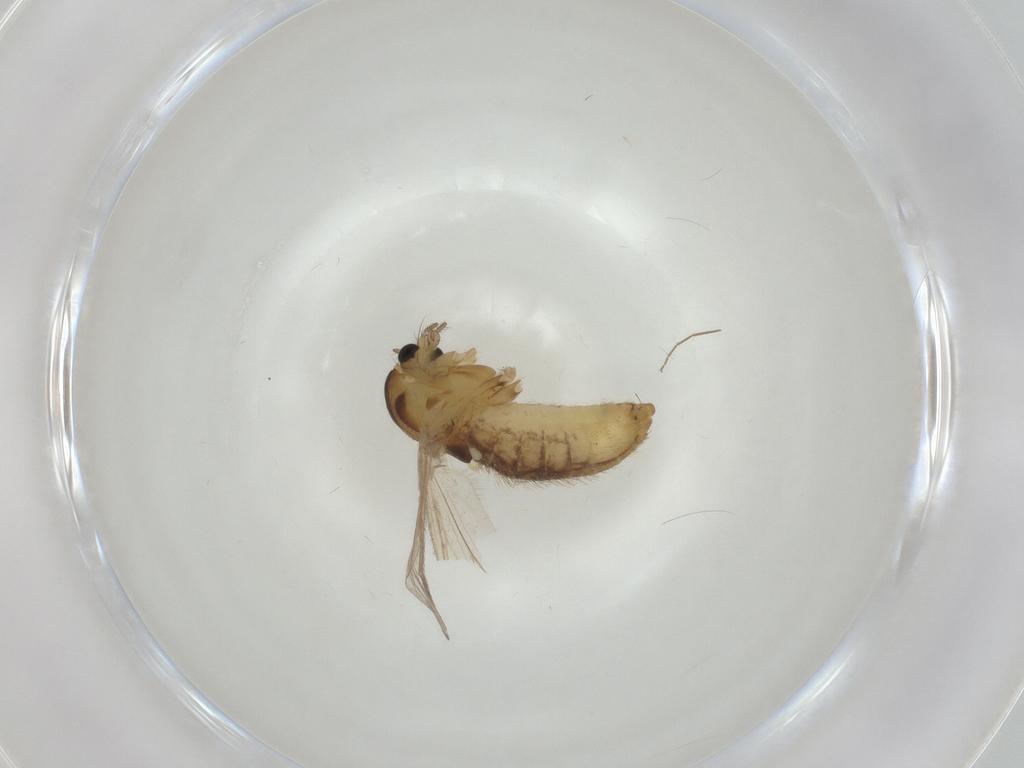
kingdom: Animalia
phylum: Arthropoda
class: Insecta
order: Diptera
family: Chironomidae
